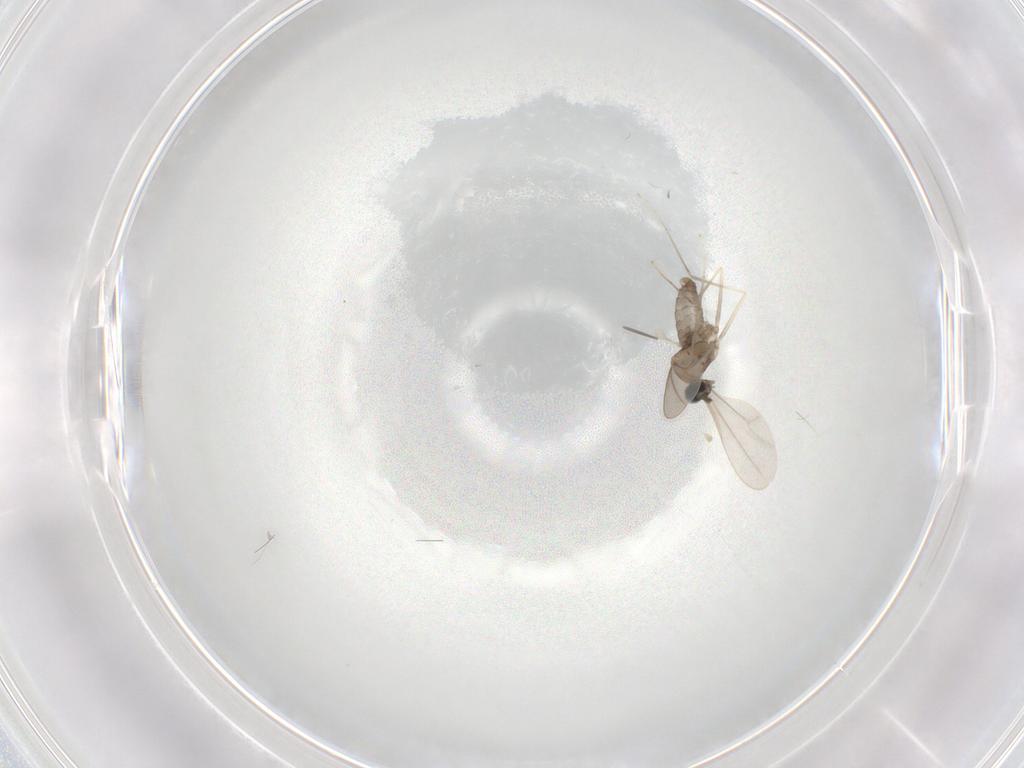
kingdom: Animalia
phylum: Arthropoda
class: Insecta
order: Diptera
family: Cecidomyiidae
